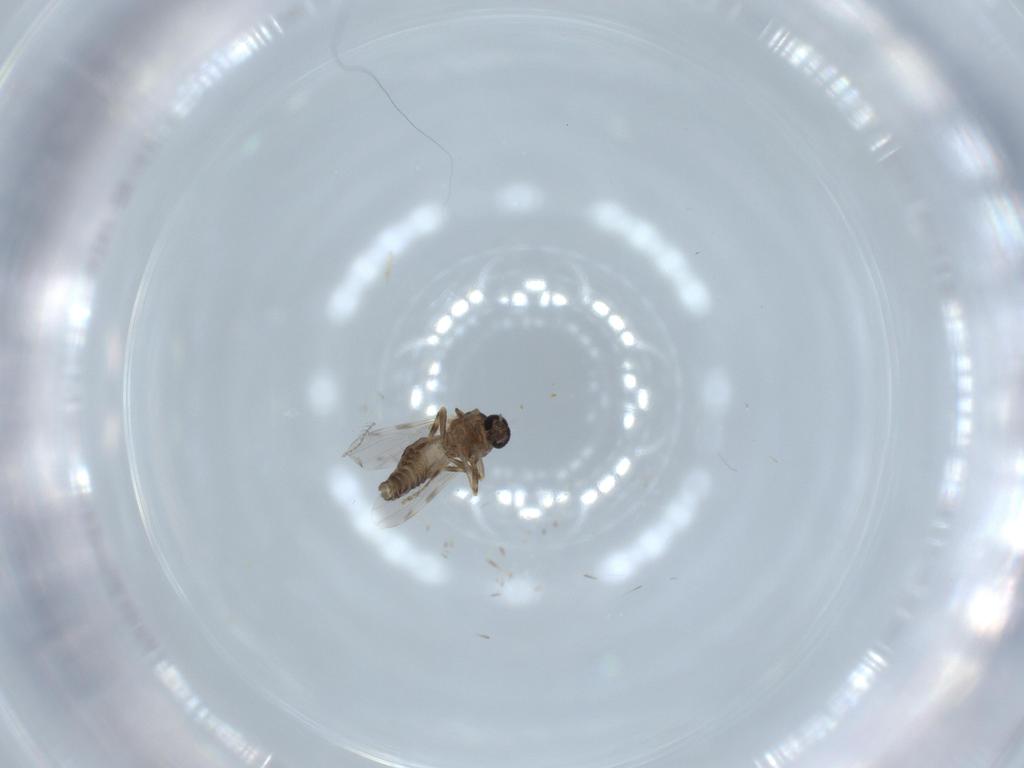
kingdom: Animalia
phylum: Arthropoda
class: Insecta
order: Diptera
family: Ceratopogonidae
